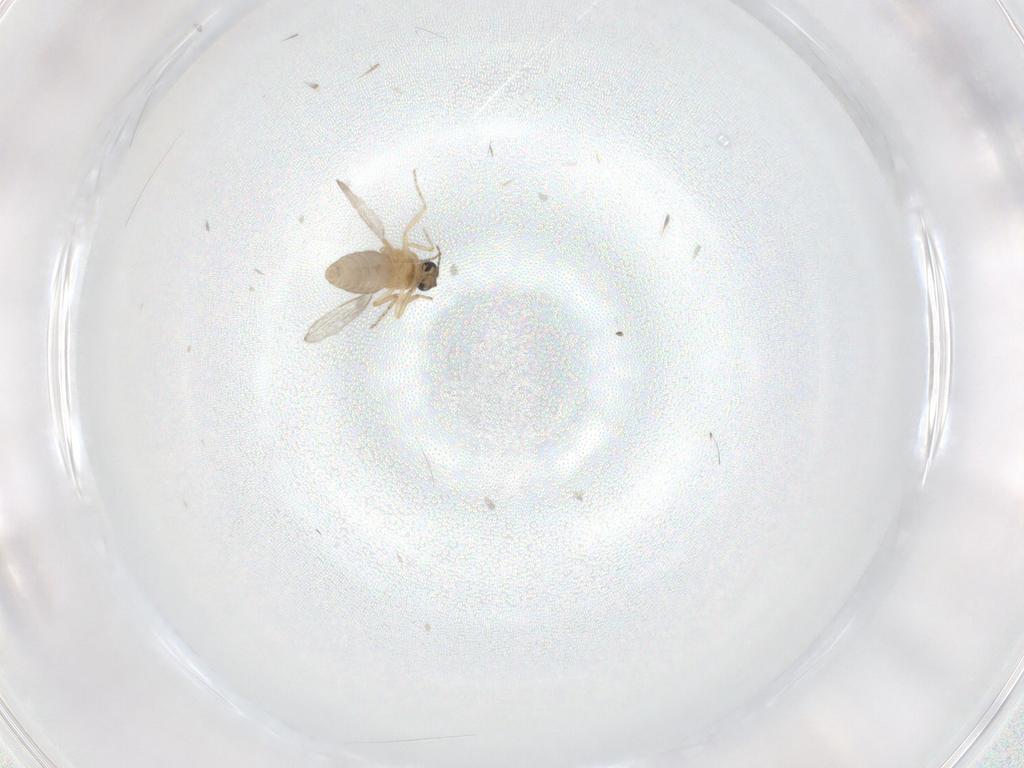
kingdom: Animalia
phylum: Arthropoda
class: Insecta
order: Diptera
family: Ceratopogonidae
